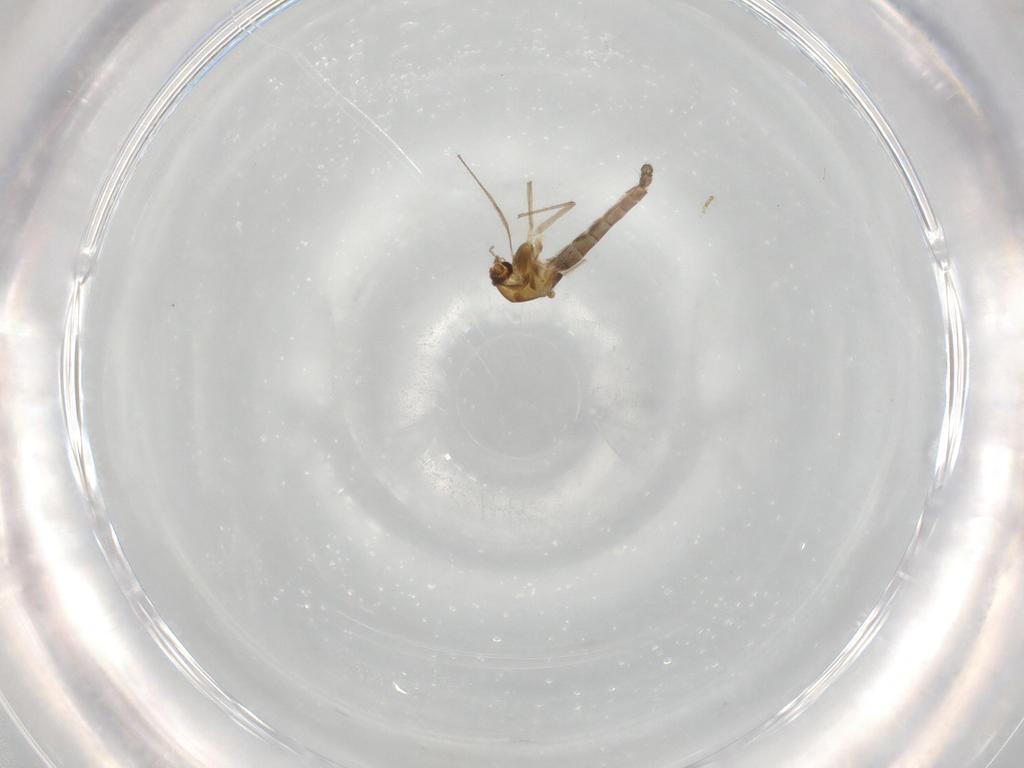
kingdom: Animalia
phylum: Arthropoda
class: Insecta
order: Diptera
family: Chironomidae
